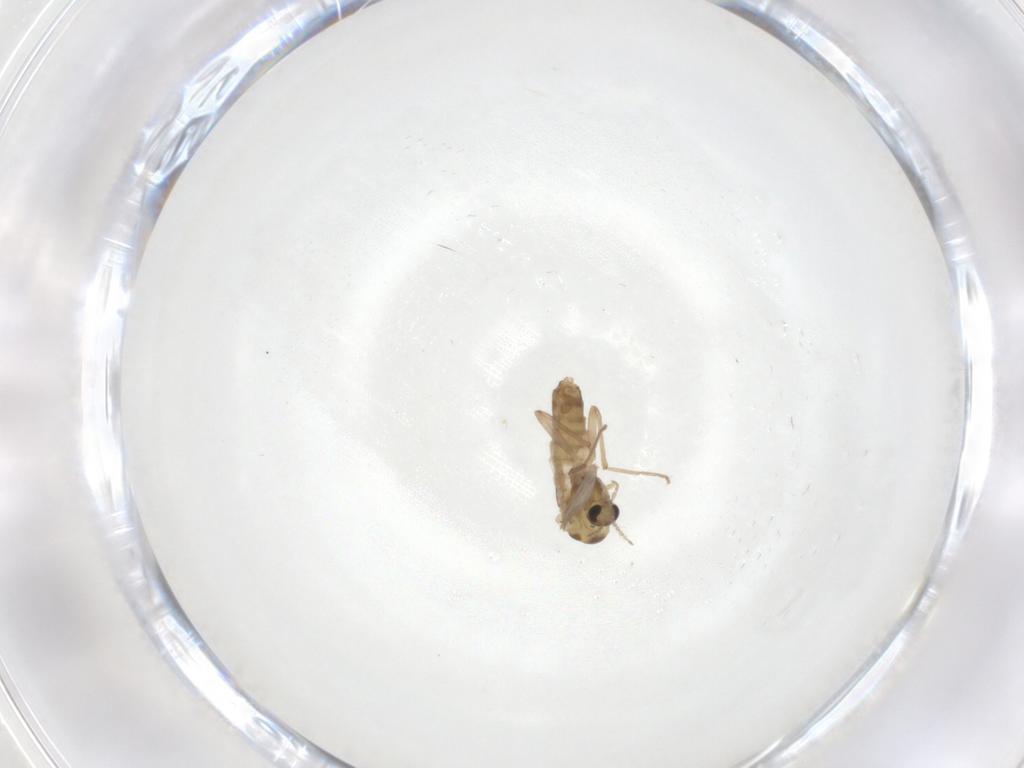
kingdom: Animalia
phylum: Arthropoda
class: Insecta
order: Diptera
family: Chironomidae
